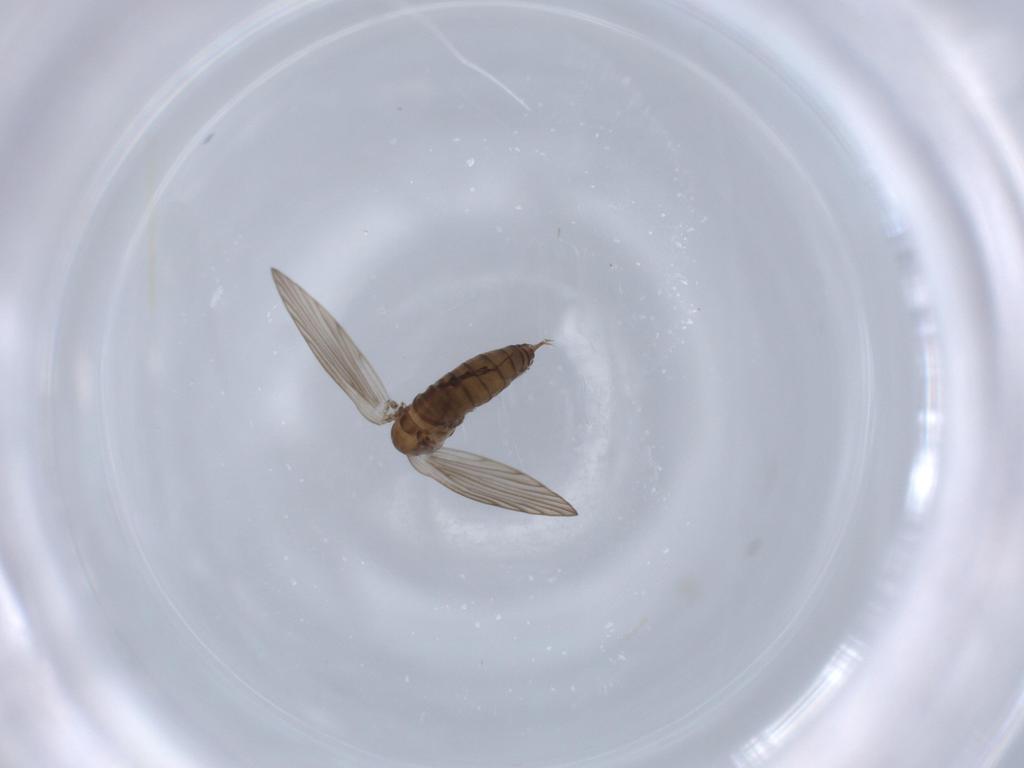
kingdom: Animalia
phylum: Arthropoda
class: Insecta
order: Diptera
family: Psychodidae
